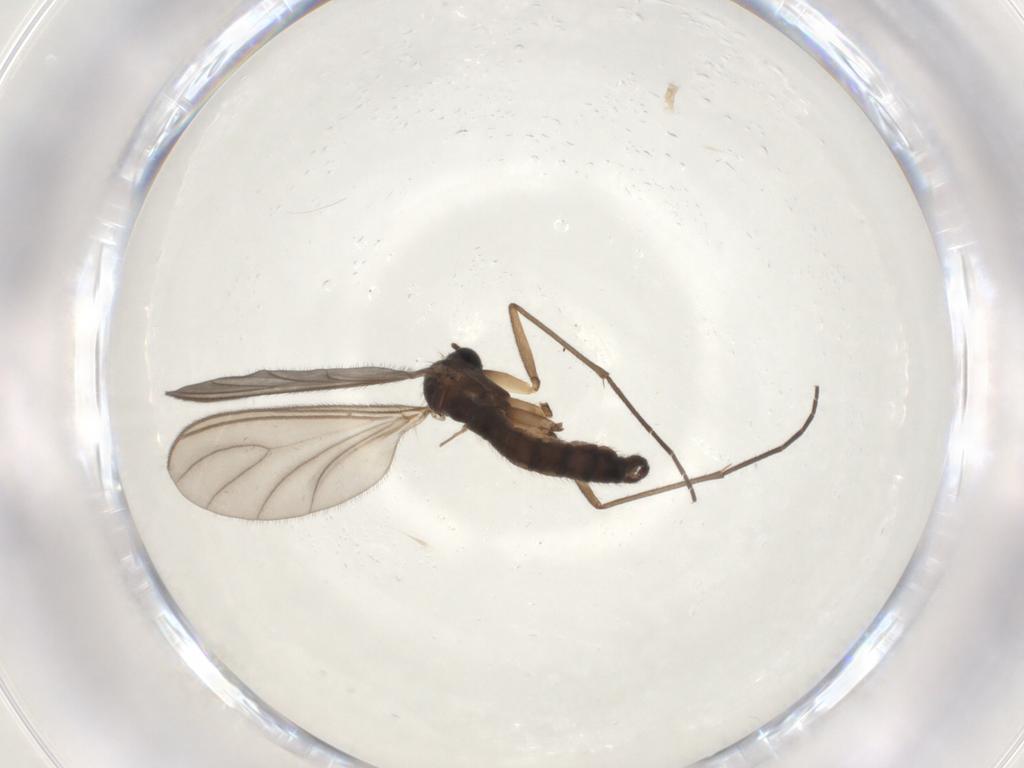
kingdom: Animalia
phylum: Arthropoda
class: Insecta
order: Diptera
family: Sciaridae
